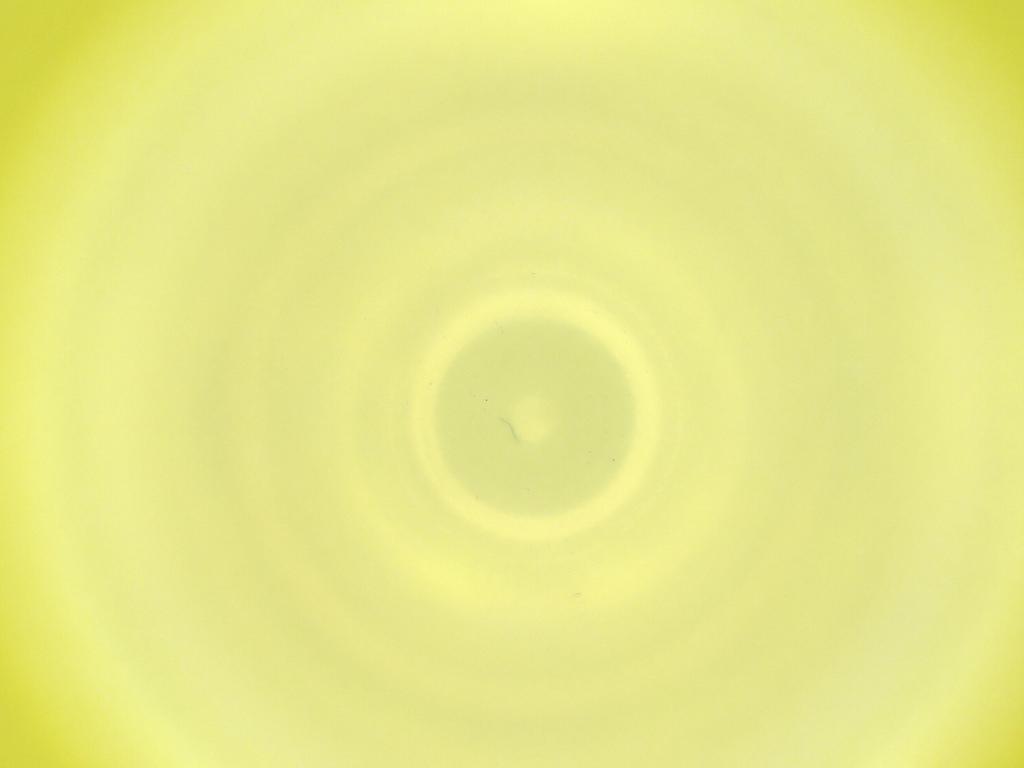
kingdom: Animalia
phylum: Arthropoda
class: Insecta
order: Diptera
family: Cecidomyiidae
